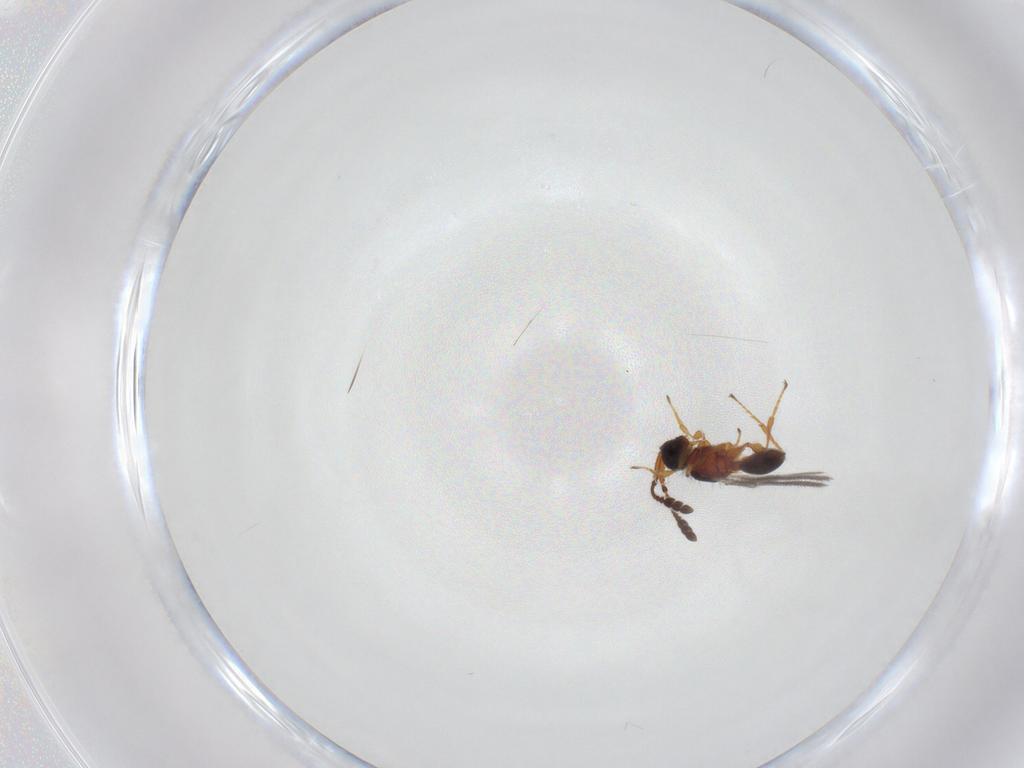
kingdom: Animalia
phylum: Arthropoda
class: Insecta
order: Hymenoptera
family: Diapriidae
